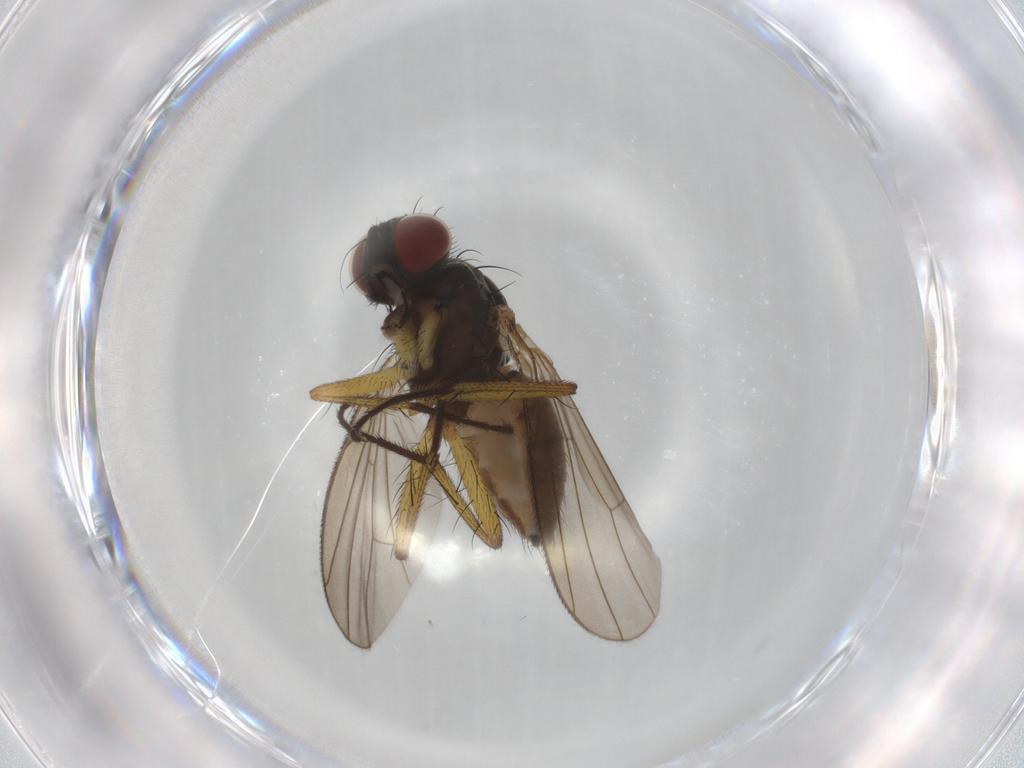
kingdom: Animalia
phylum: Arthropoda
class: Insecta
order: Diptera
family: Muscidae
